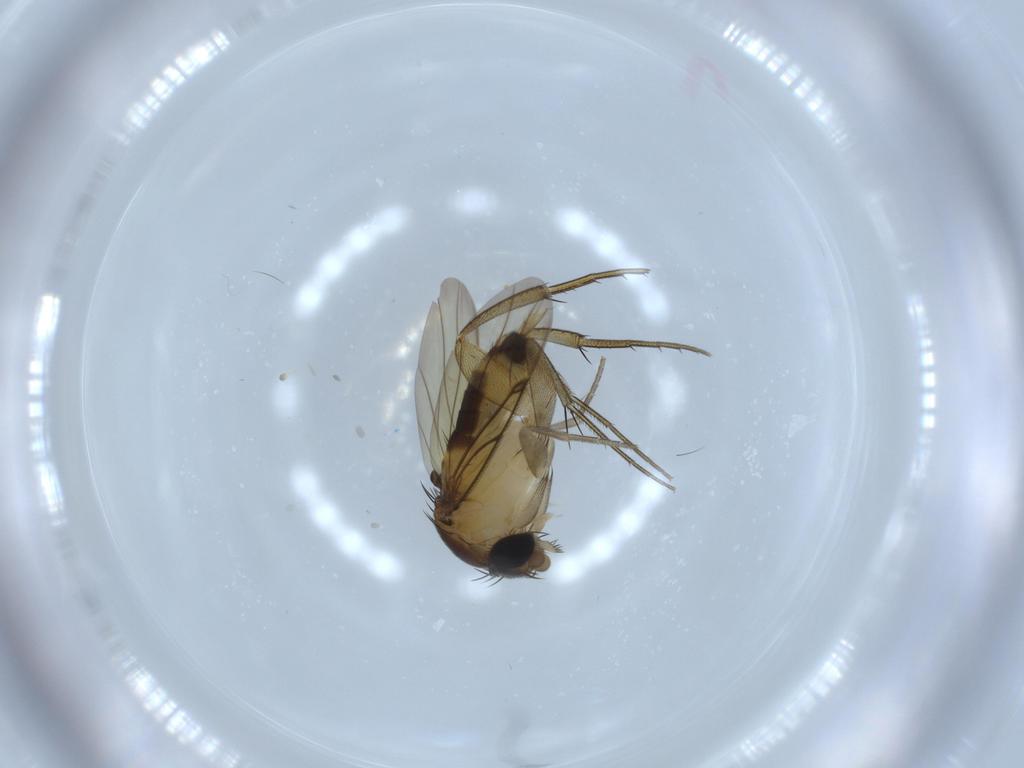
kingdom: Animalia
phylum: Arthropoda
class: Insecta
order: Diptera
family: Phoridae
